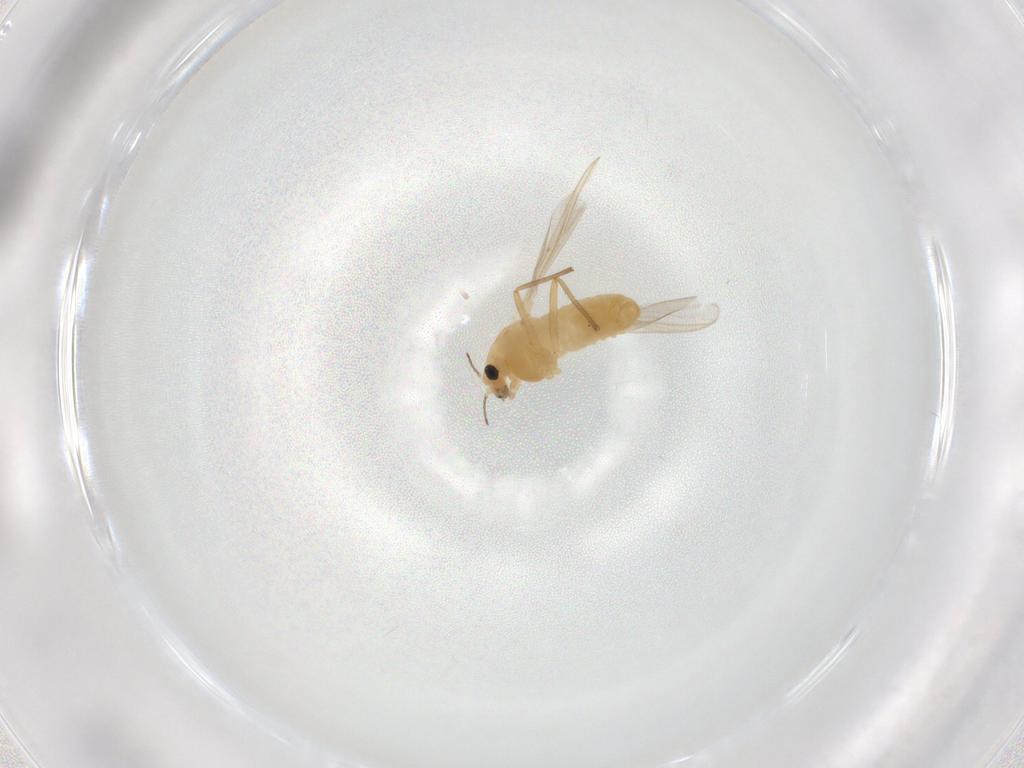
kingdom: Animalia
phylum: Arthropoda
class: Insecta
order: Diptera
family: Chironomidae
